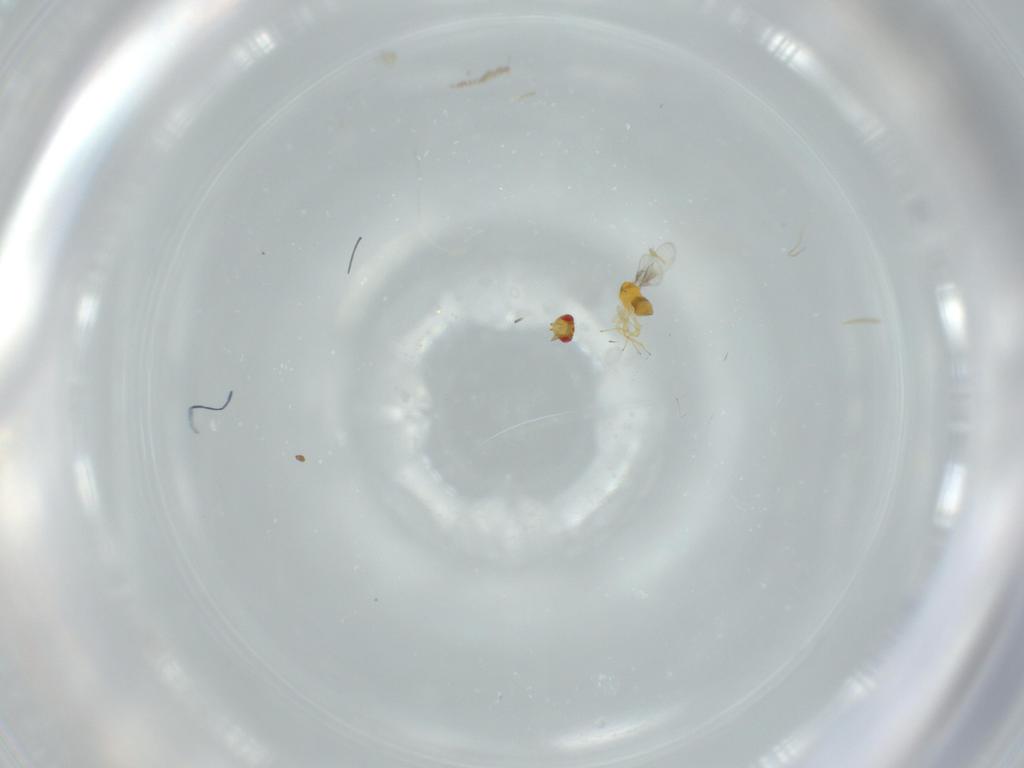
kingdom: Animalia
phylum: Arthropoda
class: Insecta
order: Hymenoptera
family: Trichogrammatidae
